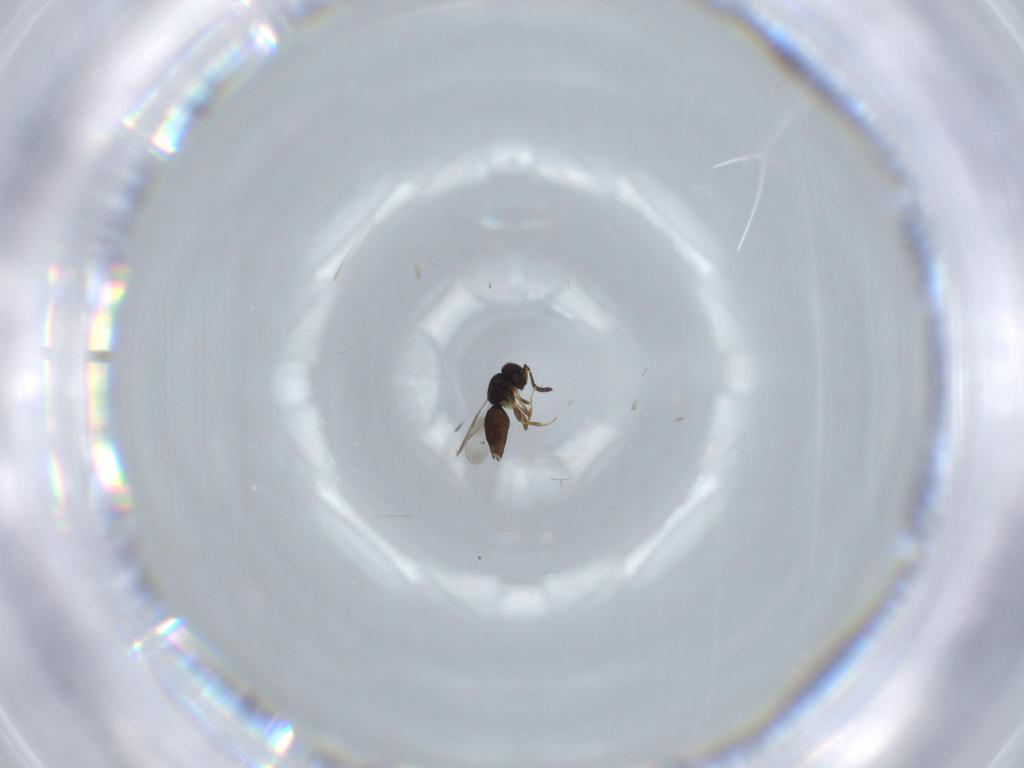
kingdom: Animalia
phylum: Arthropoda
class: Insecta
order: Hymenoptera
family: Ceraphronidae
